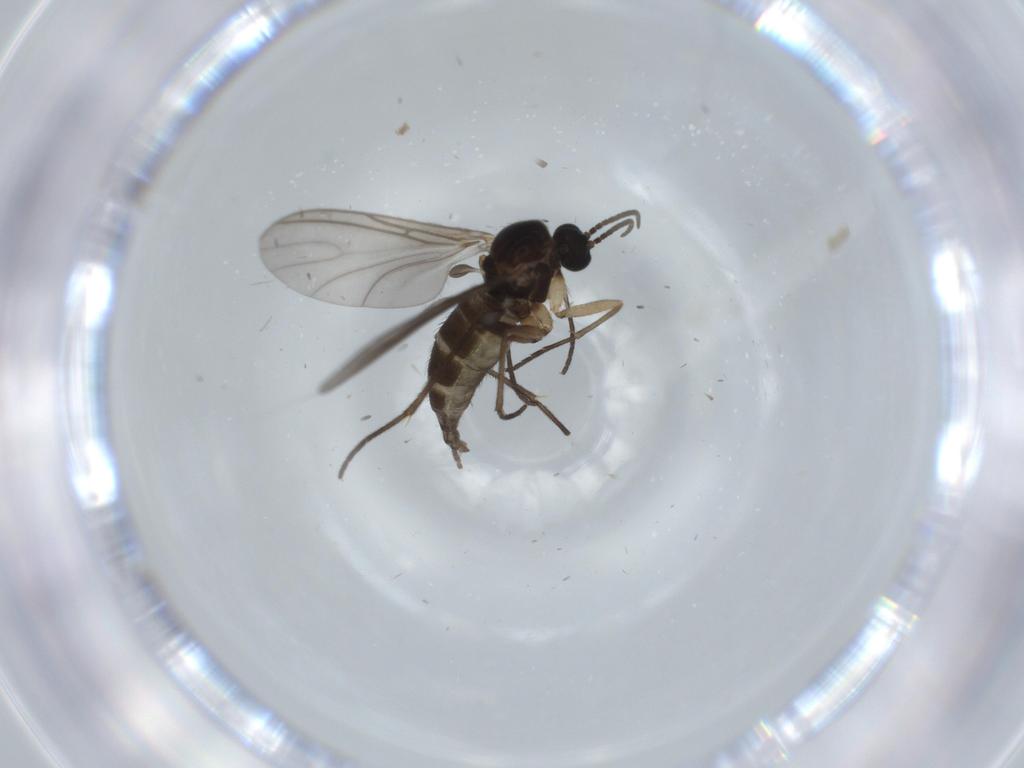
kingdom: Animalia
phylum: Arthropoda
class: Insecta
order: Diptera
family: Sciaridae
